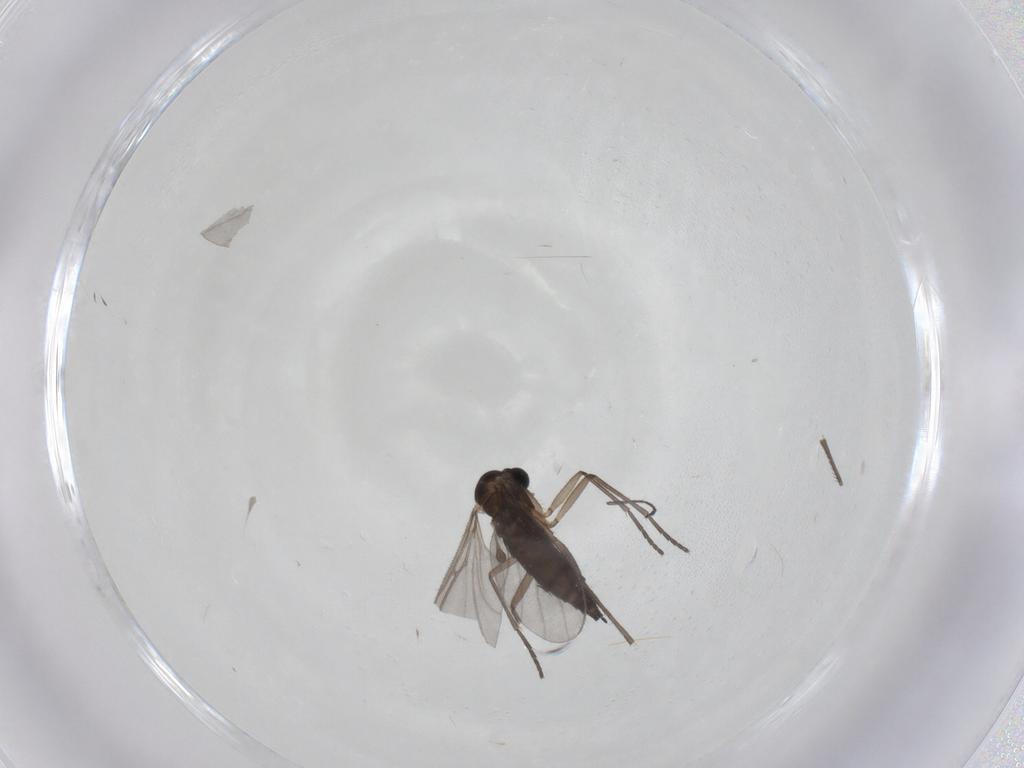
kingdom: Animalia
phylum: Arthropoda
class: Insecta
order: Diptera
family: Sciaridae
